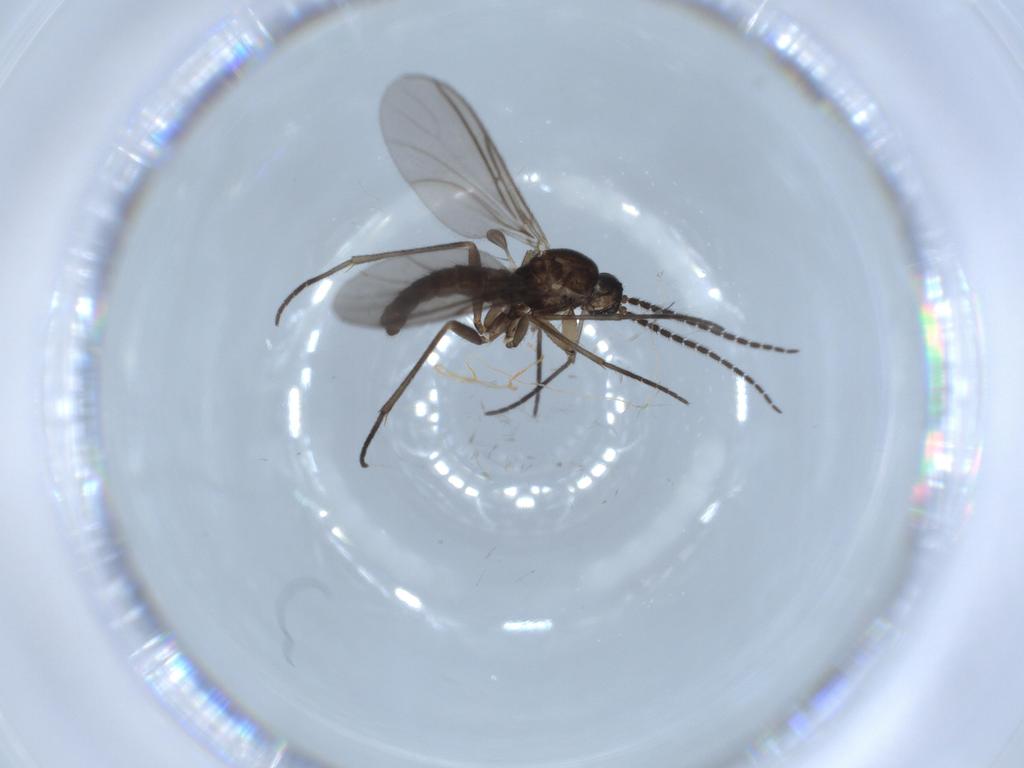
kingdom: Animalia
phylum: Arthropoda
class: Insecta
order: Diptera
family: Sciaridae
